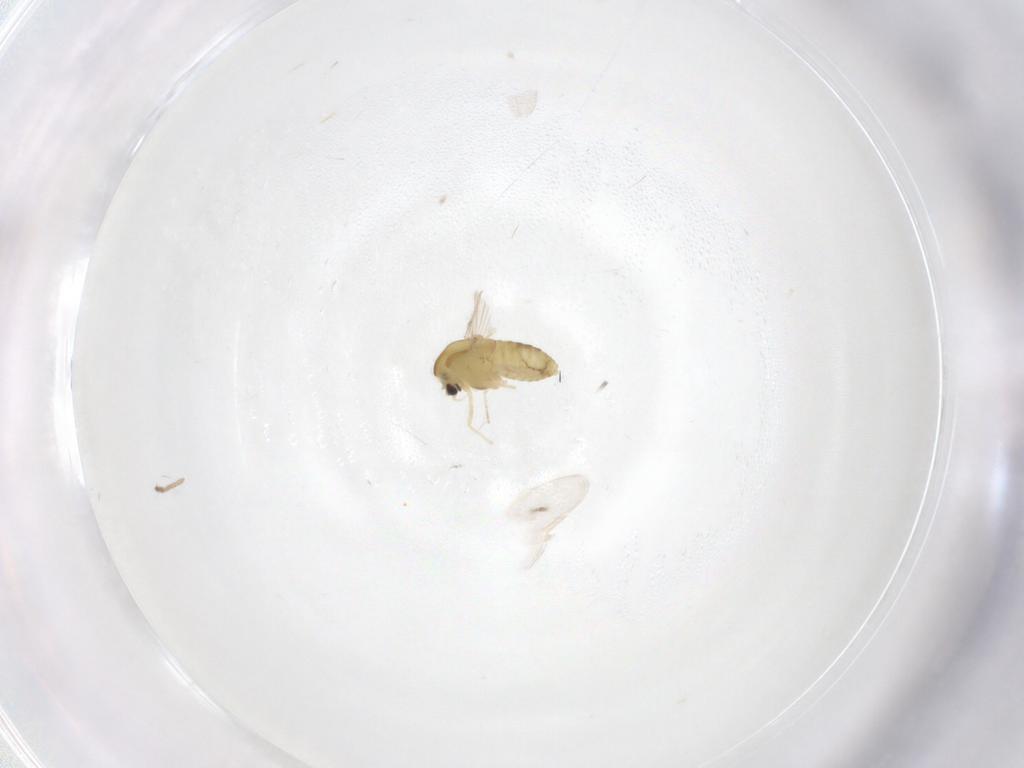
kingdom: Animalia
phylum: Arthropoda
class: Insecta
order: Diptera
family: Chironomidae
